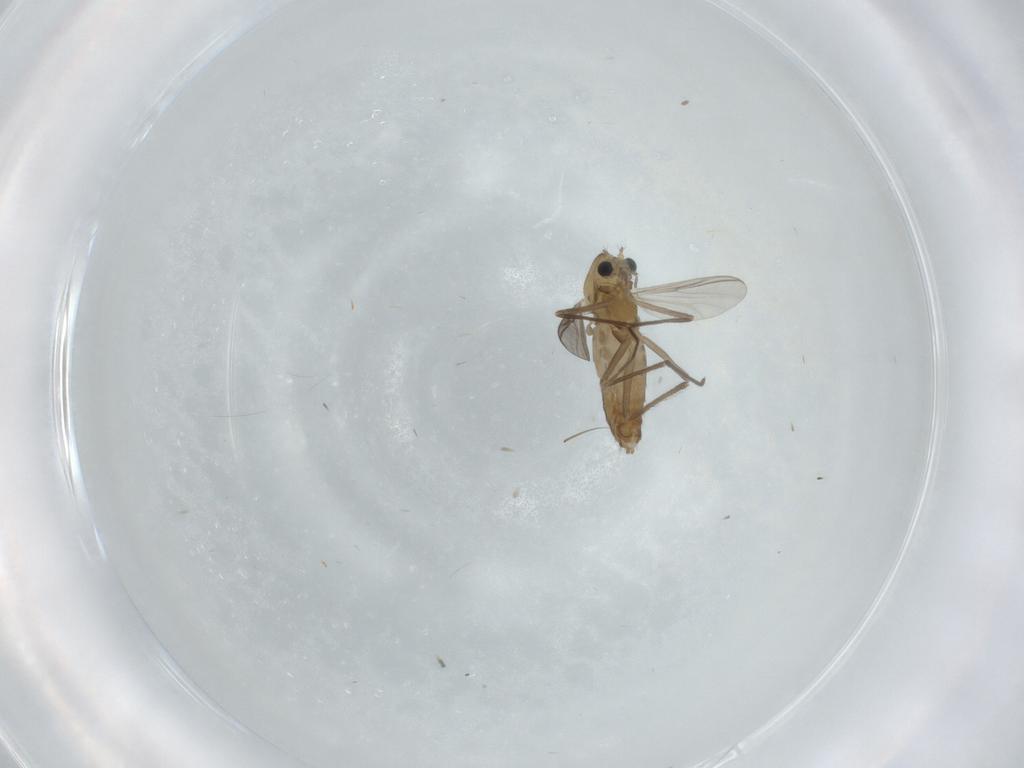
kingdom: Animalia
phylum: Arthropoda
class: Insecta
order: Diptera
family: Chironomidae
